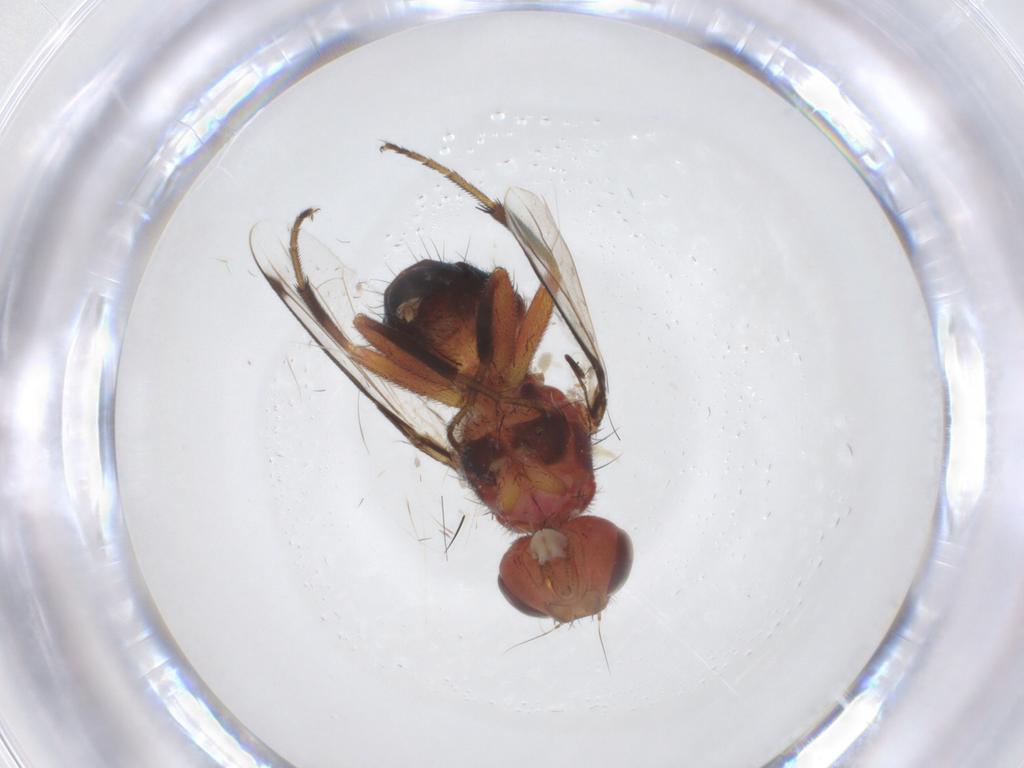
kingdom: Animalia
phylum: Arthropoda
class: Insecta
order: Diptera
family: Richardiidae
